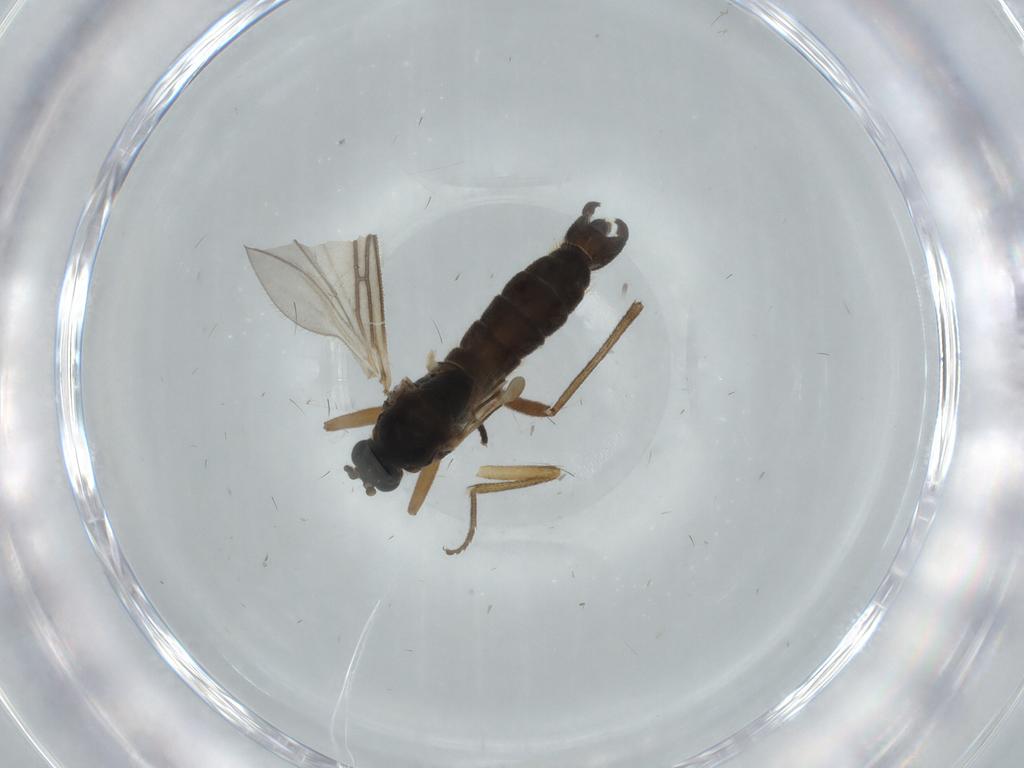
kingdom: Animalia
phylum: Arthropoda
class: Insecta
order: Diptera
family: Sciaridae
